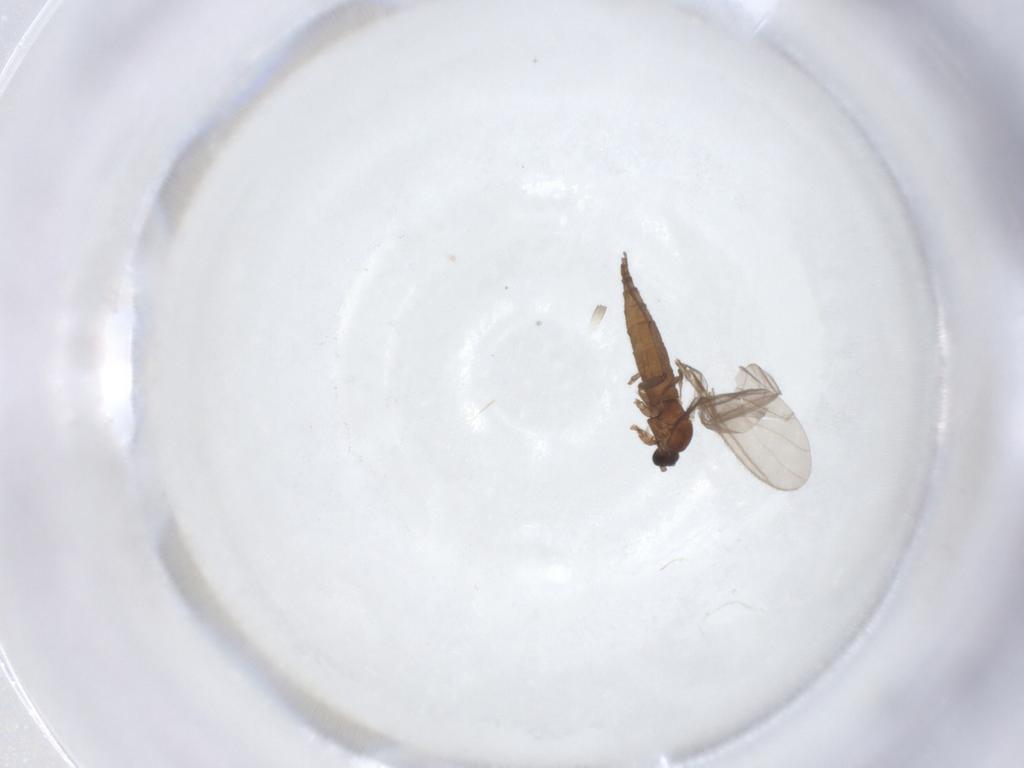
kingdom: Animalia
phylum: Arthropoda
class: Insecta
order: Diptera
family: Sciaridae
